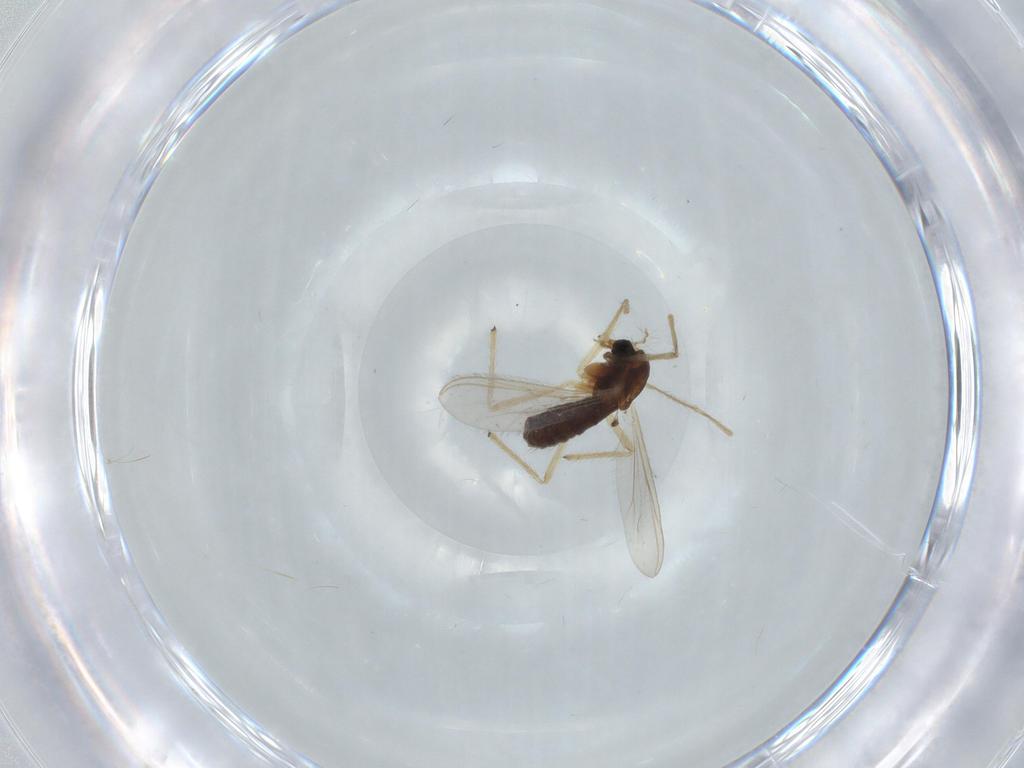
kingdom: Animalia
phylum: Arthropoda
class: Insecta
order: Diptera
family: Chironomidae
